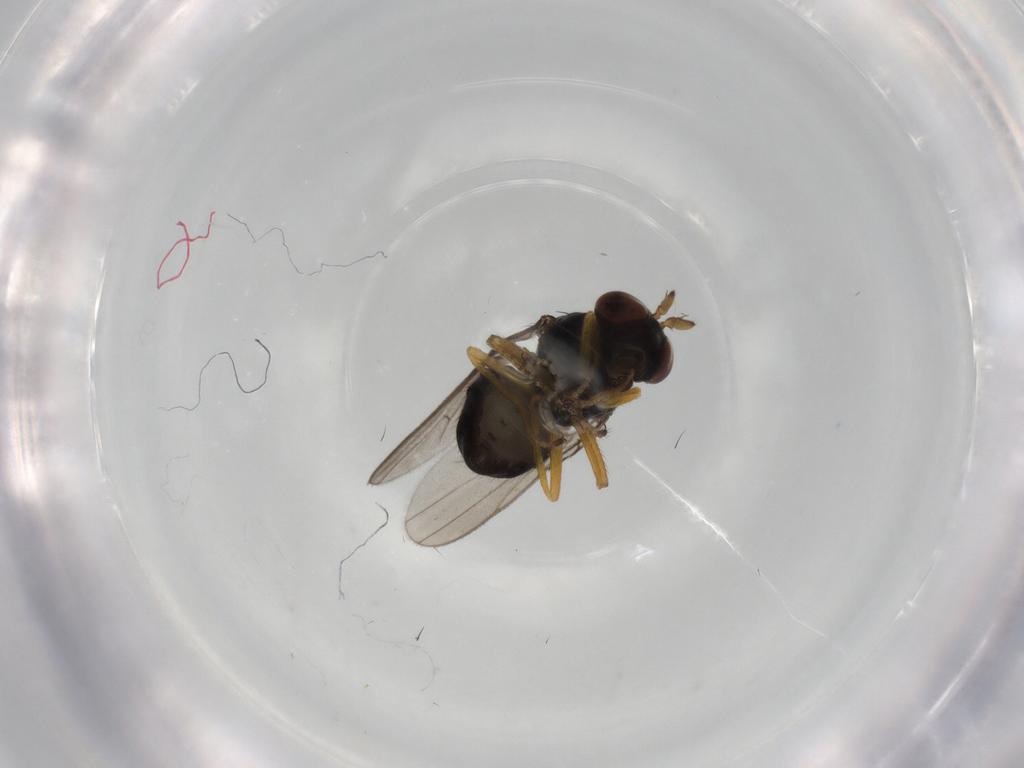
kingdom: Animalia
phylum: Arthropoda
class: Insecta
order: Diptera
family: Ephydridae
